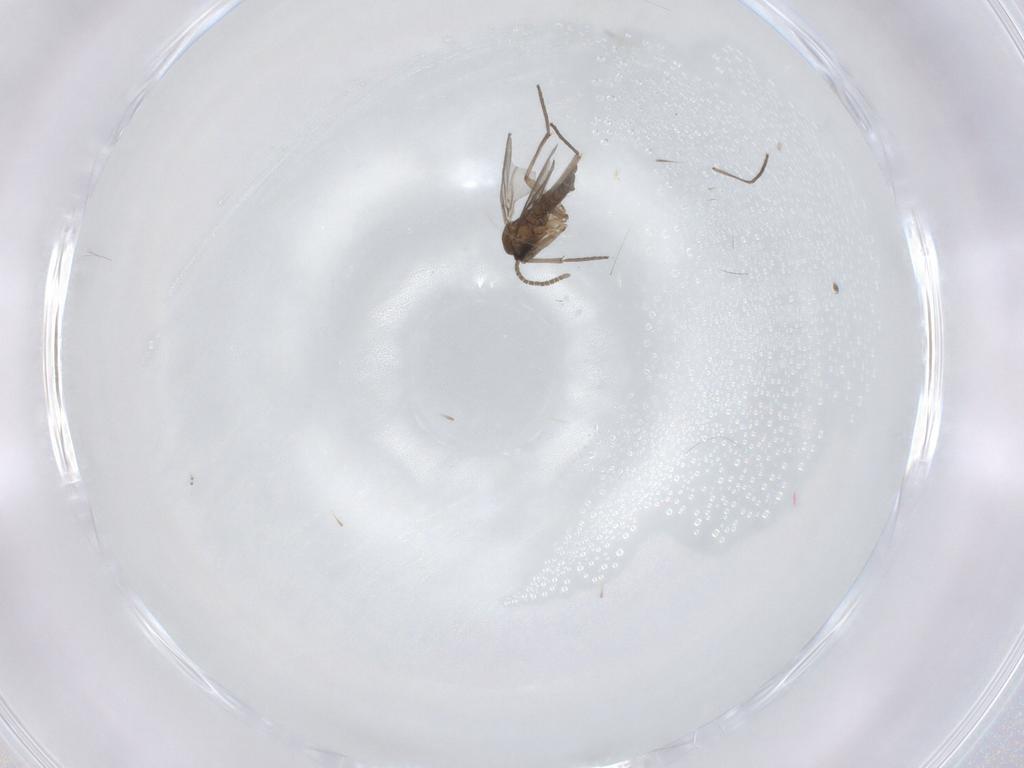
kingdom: Animalia
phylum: Arthropoda
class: Insecta
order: Diptera
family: Sciaridae
